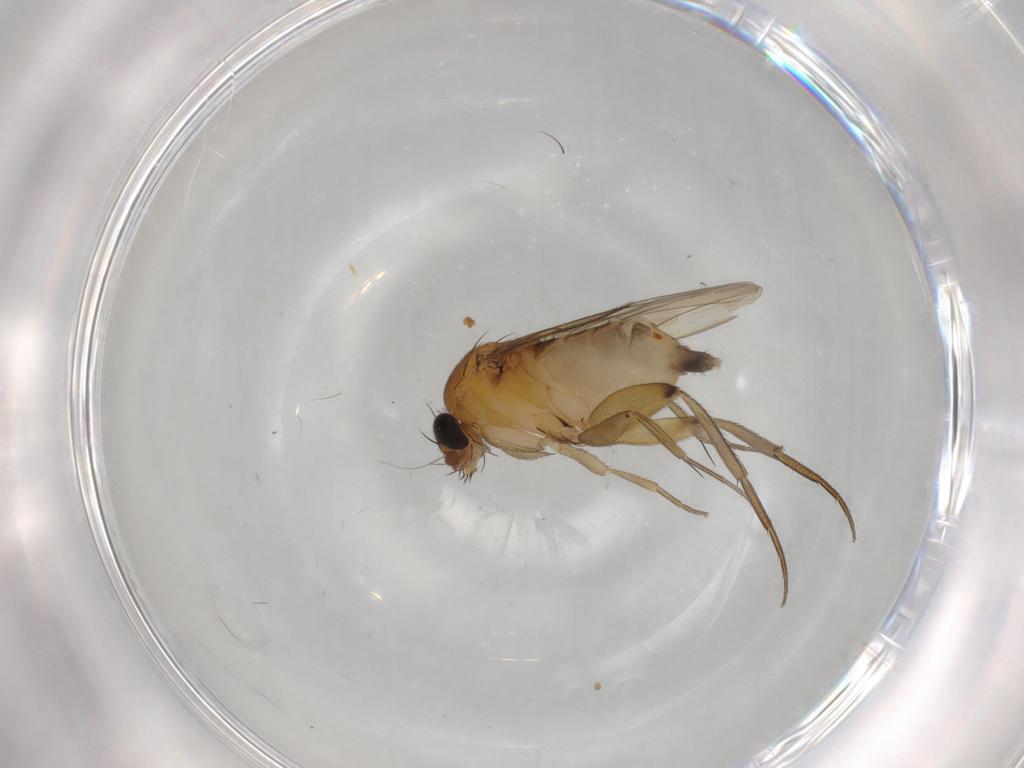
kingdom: Animalia
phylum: Arthropoda
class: Insecta
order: Diptera
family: Phoridae
